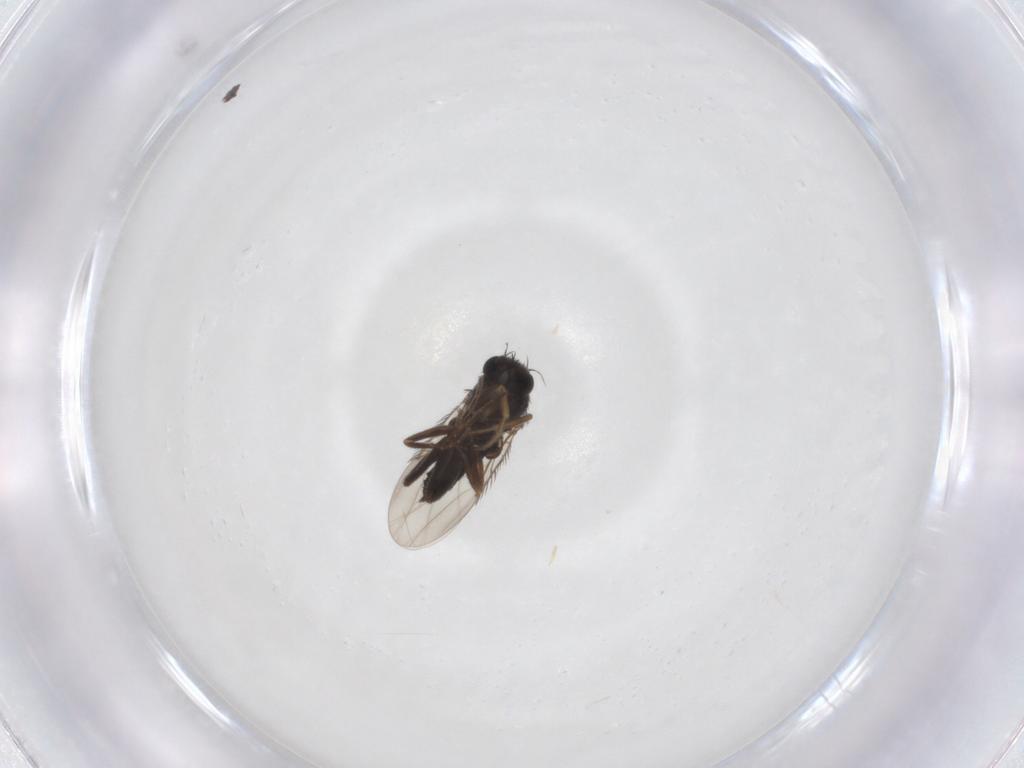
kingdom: Animalia
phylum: Arthropoda
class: Insecta
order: Diptera
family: Phoridae
